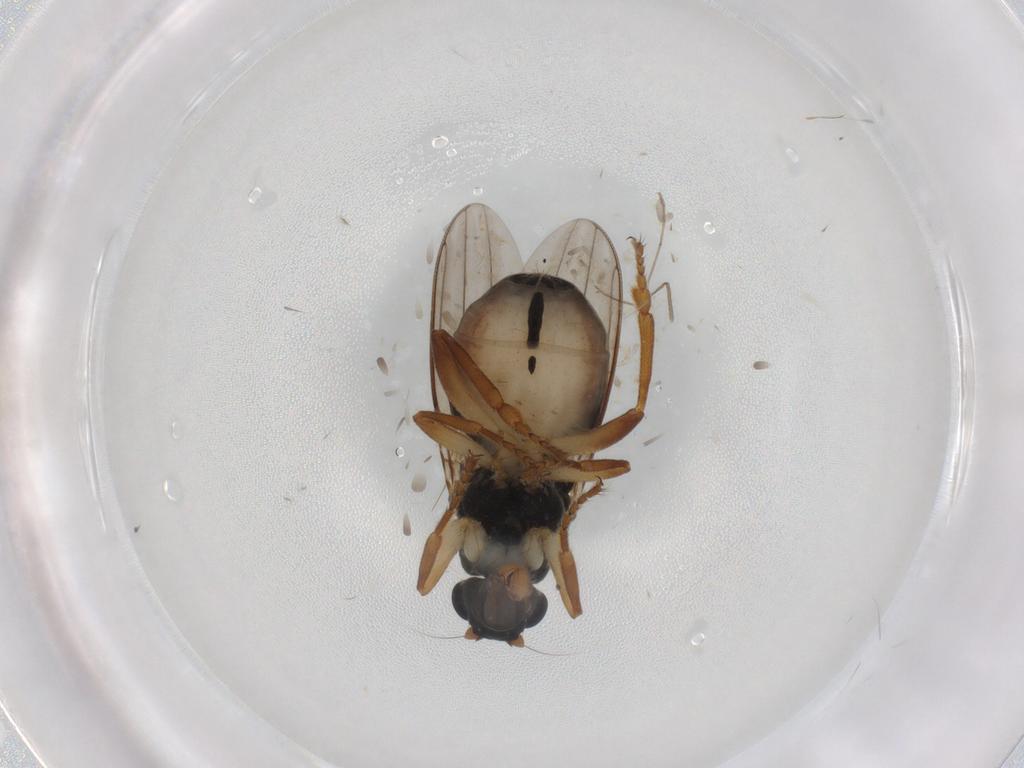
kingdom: Animalia
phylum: Arthropoda
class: Insecta
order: Diptera
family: Chironomidae
